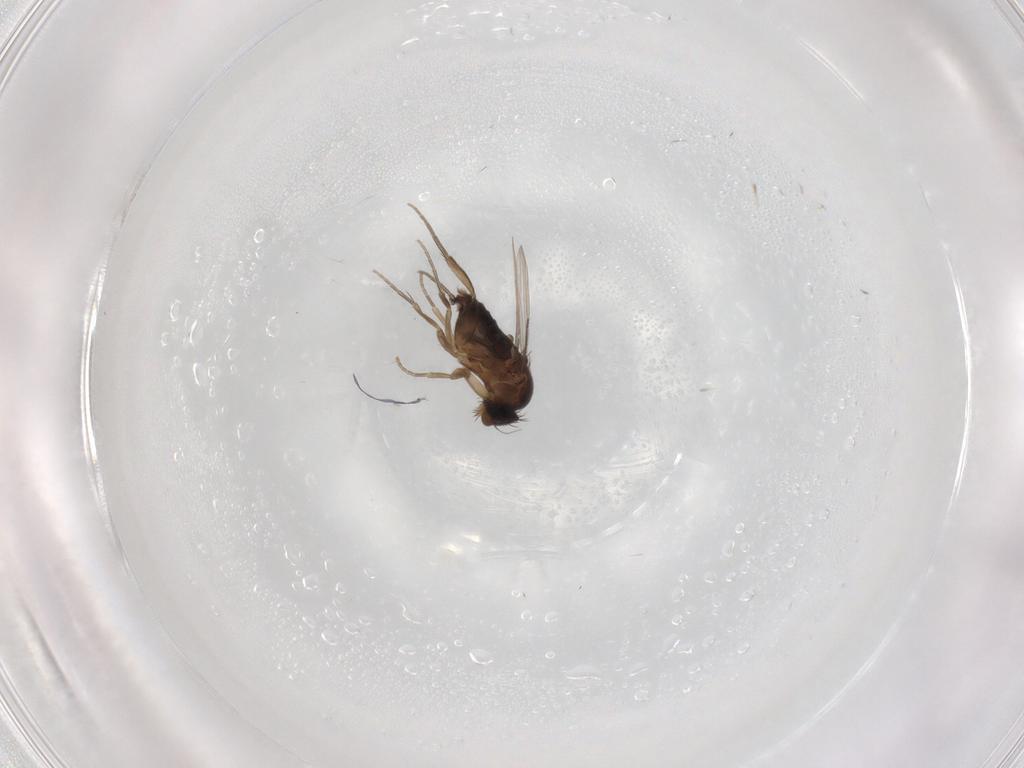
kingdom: Animalia
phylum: Arthropoda
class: Insecta
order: Diptera
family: Phoridae
